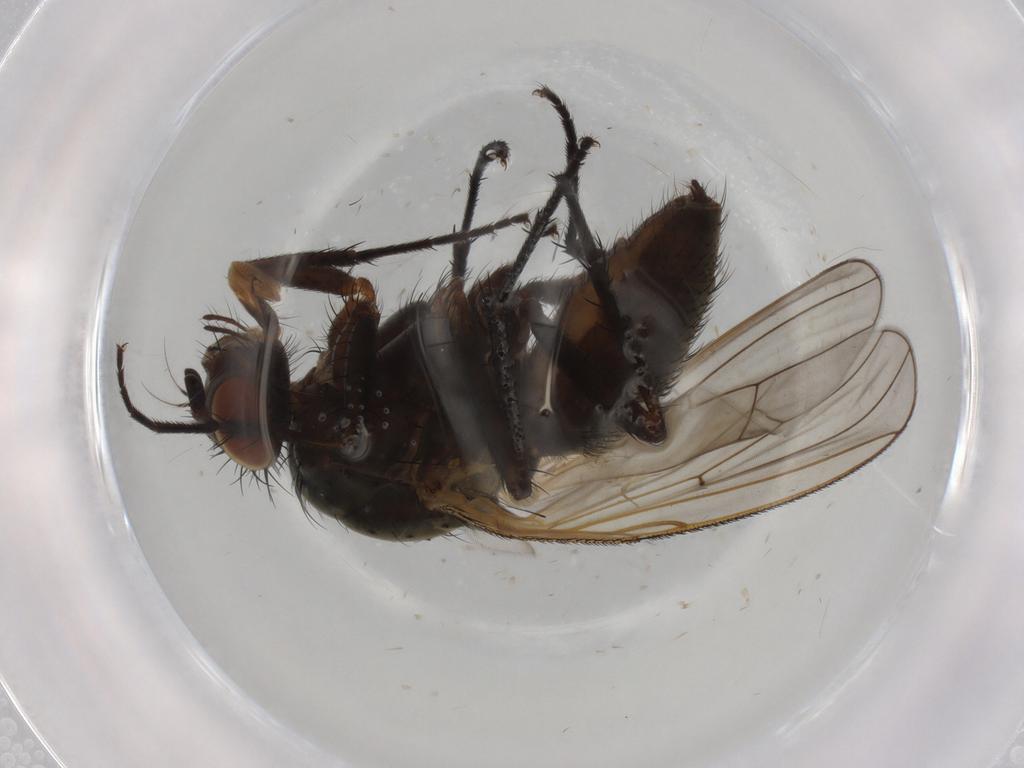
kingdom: Animalia
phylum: Arthropoda
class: Insecta
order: Diptera
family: Anthomyiidae
